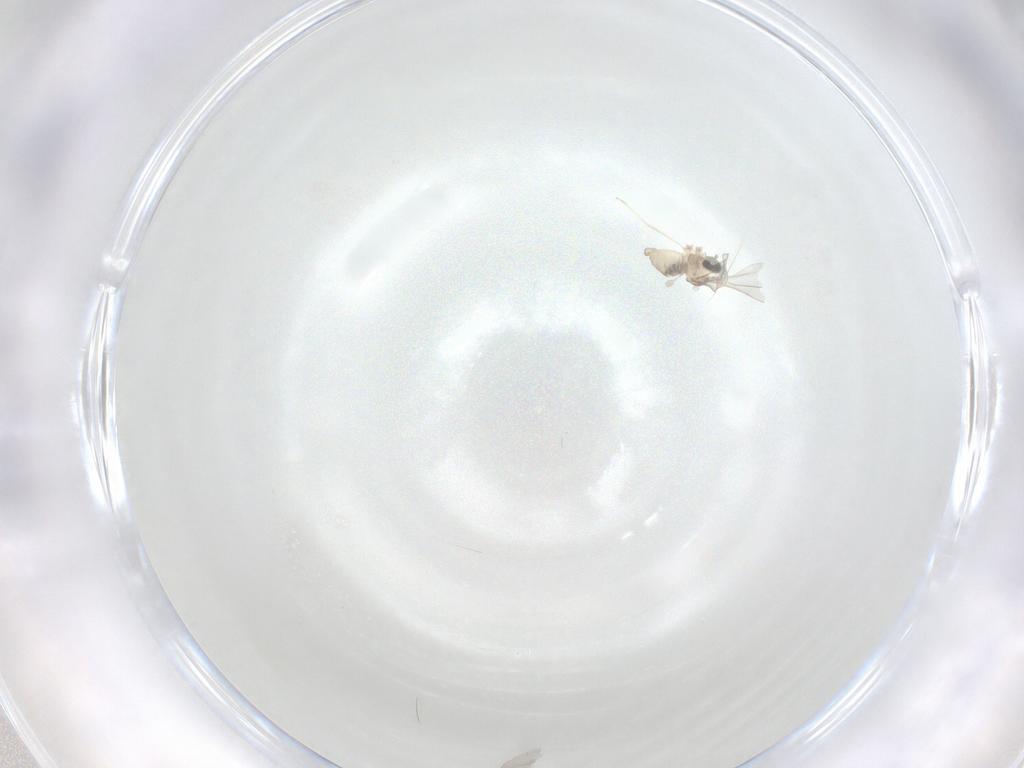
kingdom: Animalia
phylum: Arthropoda
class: Insecta
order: Diptera
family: Cecidomyiidae
